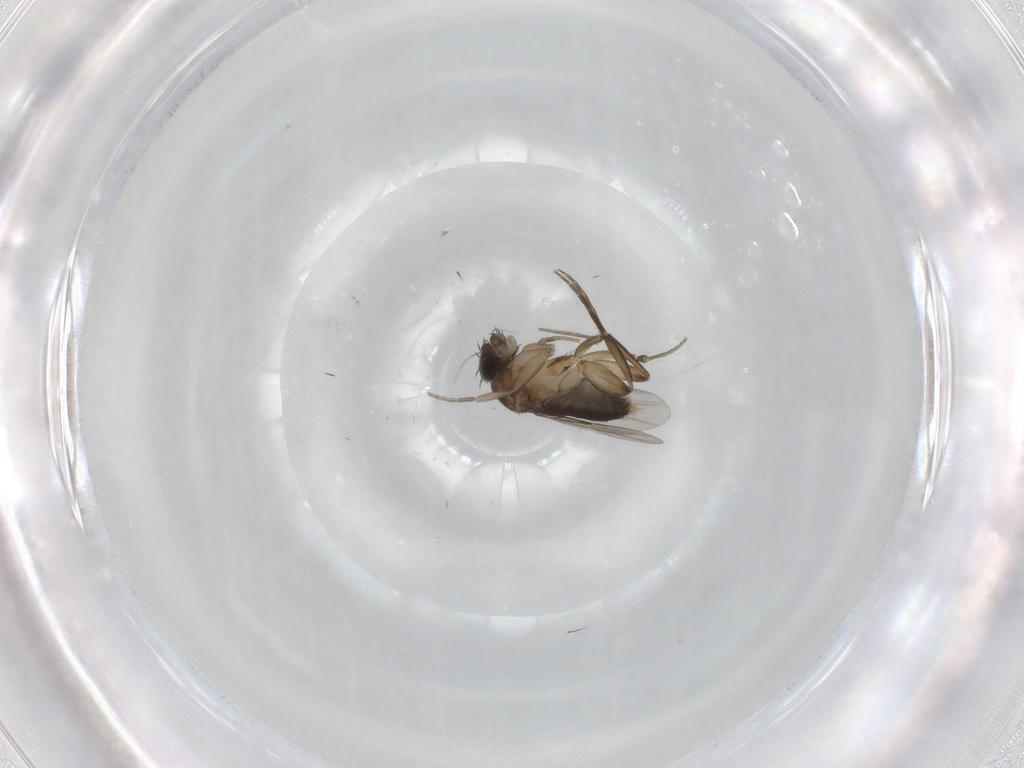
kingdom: Animalia
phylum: Arthropoda
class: Insecta
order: Diptera
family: Phoridae
